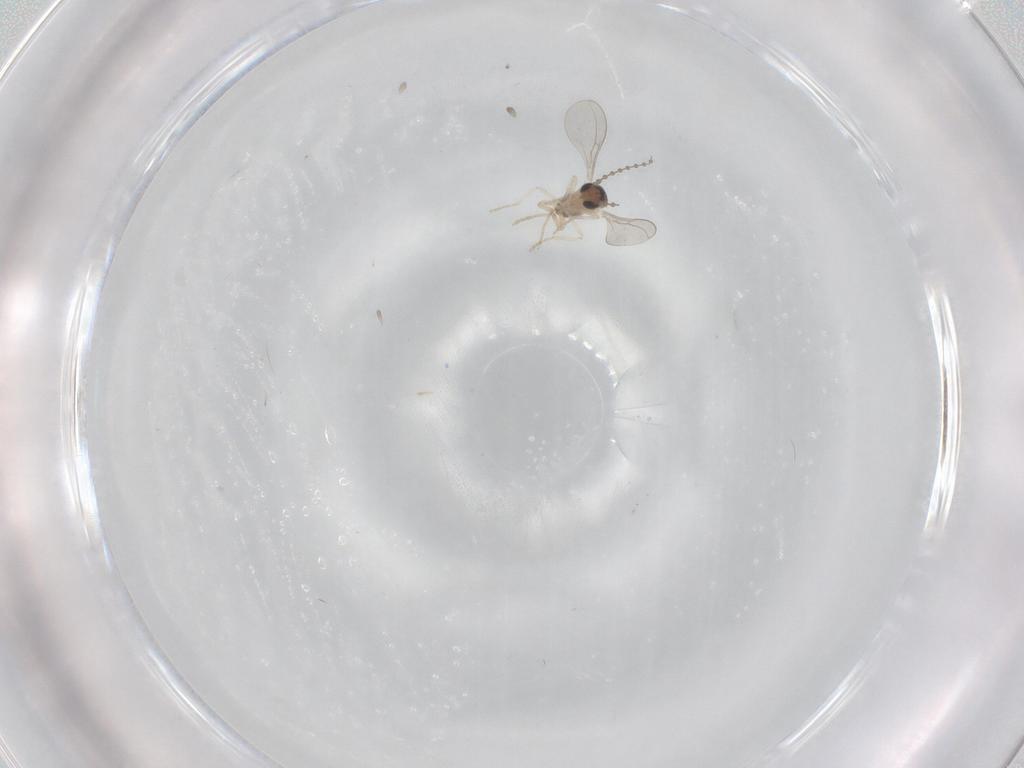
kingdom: Animalia
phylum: Arthropoda
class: Insecta
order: Diptera
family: Cecidomyiidae
